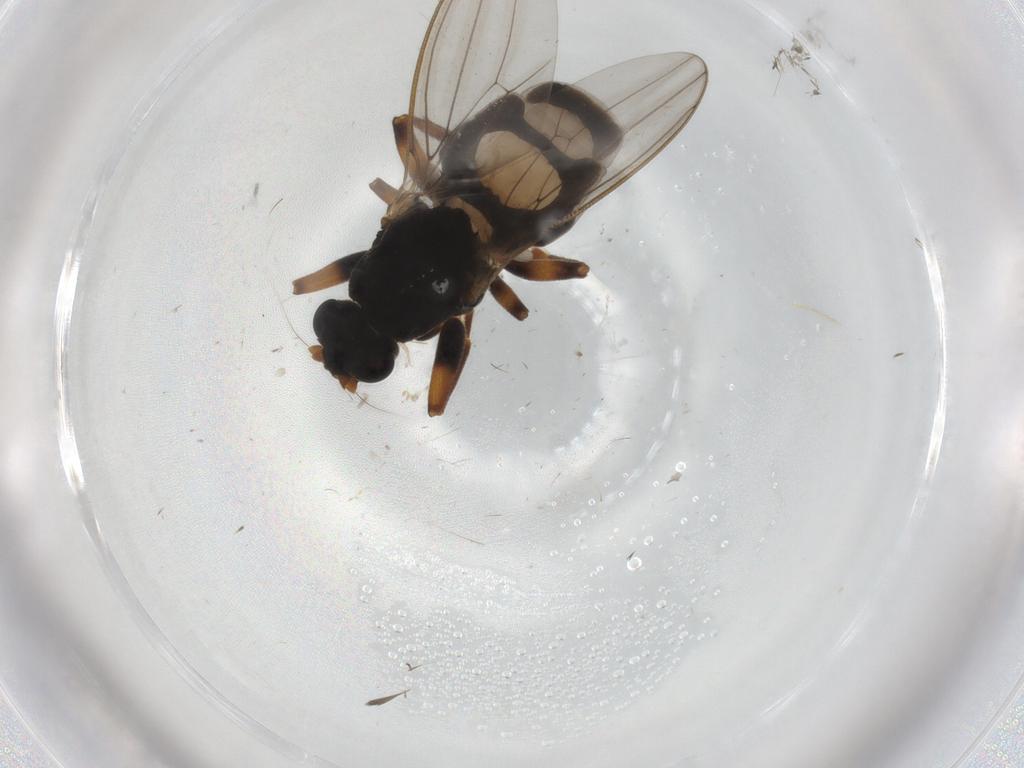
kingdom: Animalia
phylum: Arthropoda
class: Insecta
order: Diptera
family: Sphaeroceridae
